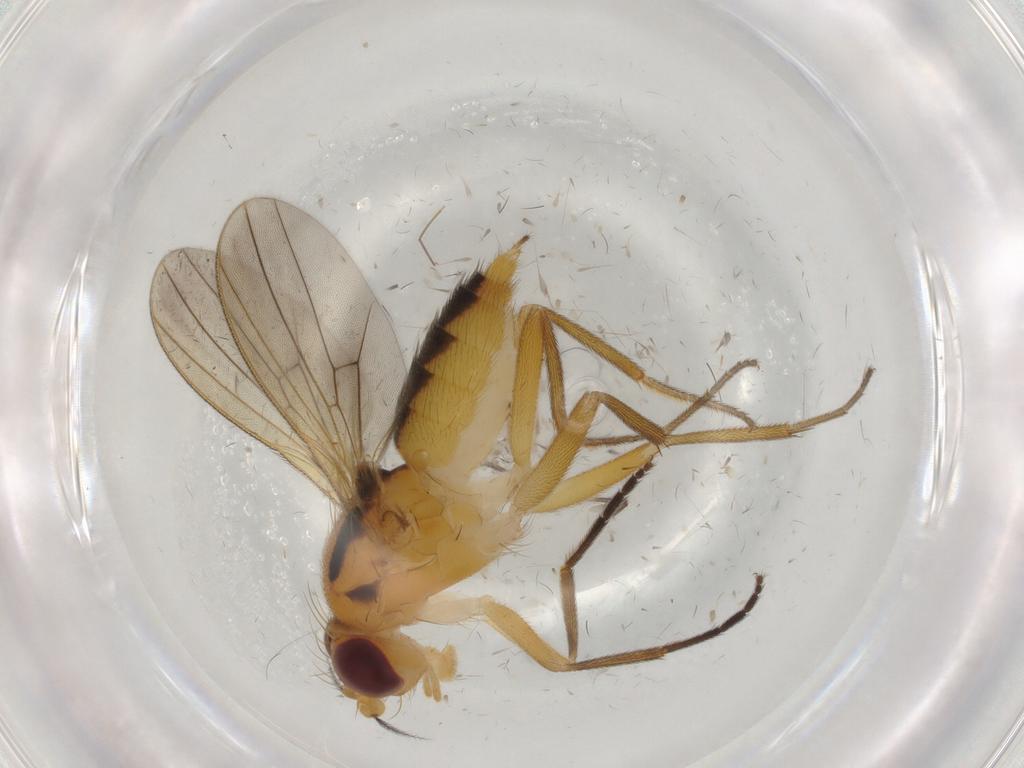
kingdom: Animalia
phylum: Arthropoda
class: Insecta
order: Diptera
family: Clusiidae
